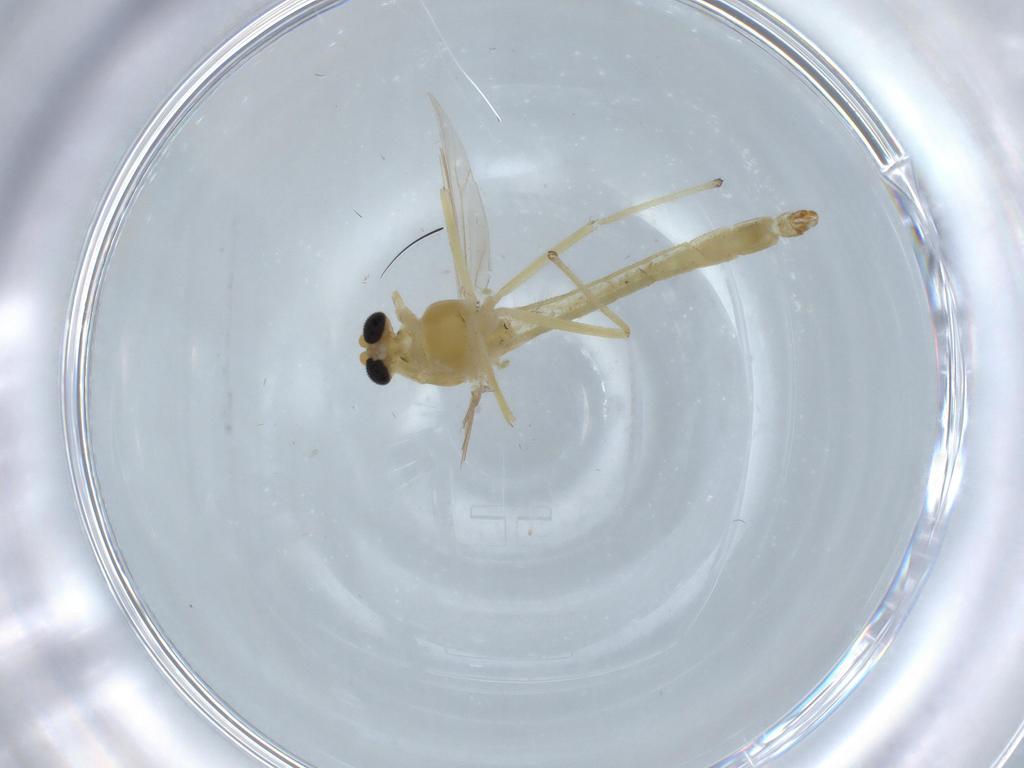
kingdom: Animalia
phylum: Arthropoda
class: Insecta
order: Diptera
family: Chironomidae
